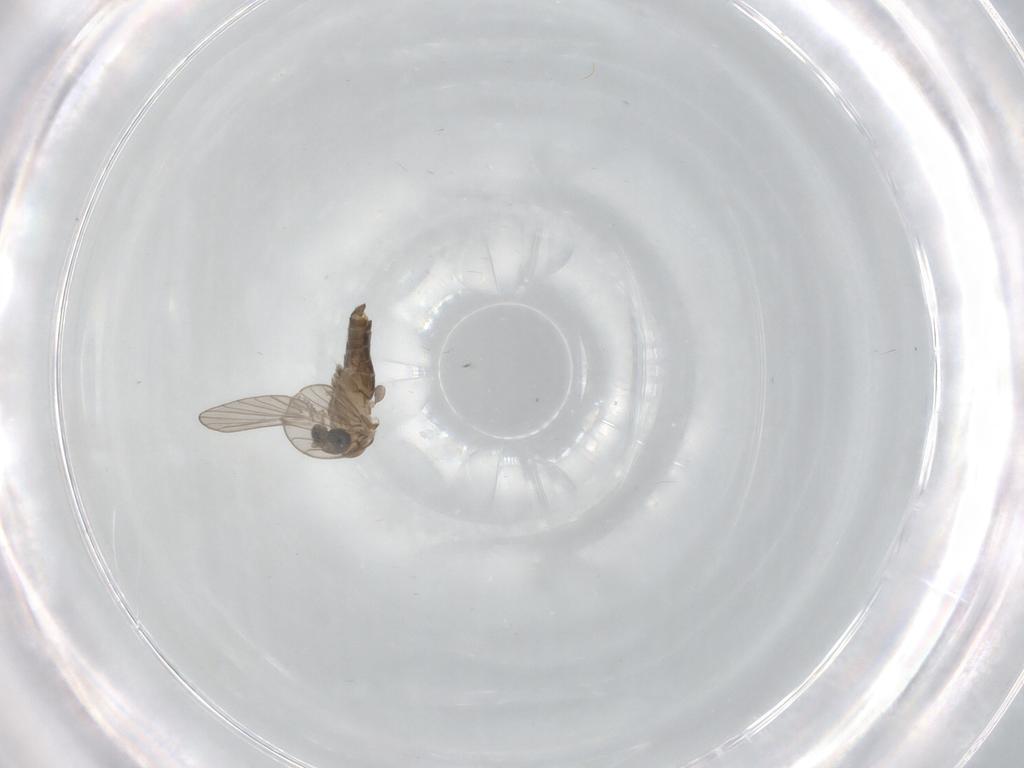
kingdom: Animalia
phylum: Arthropoda
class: Insecta
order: Diptera
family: Psychodidae
